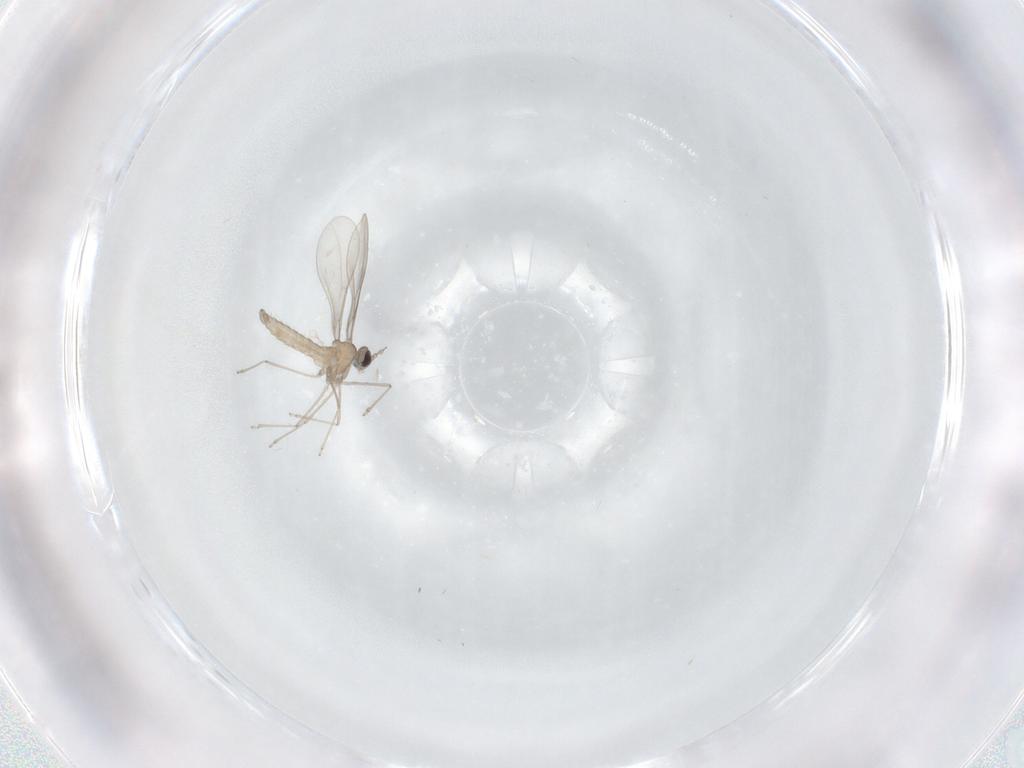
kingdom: Animalia
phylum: Arthropoda
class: Insecta
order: Diptera
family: Cecidomyiidae
